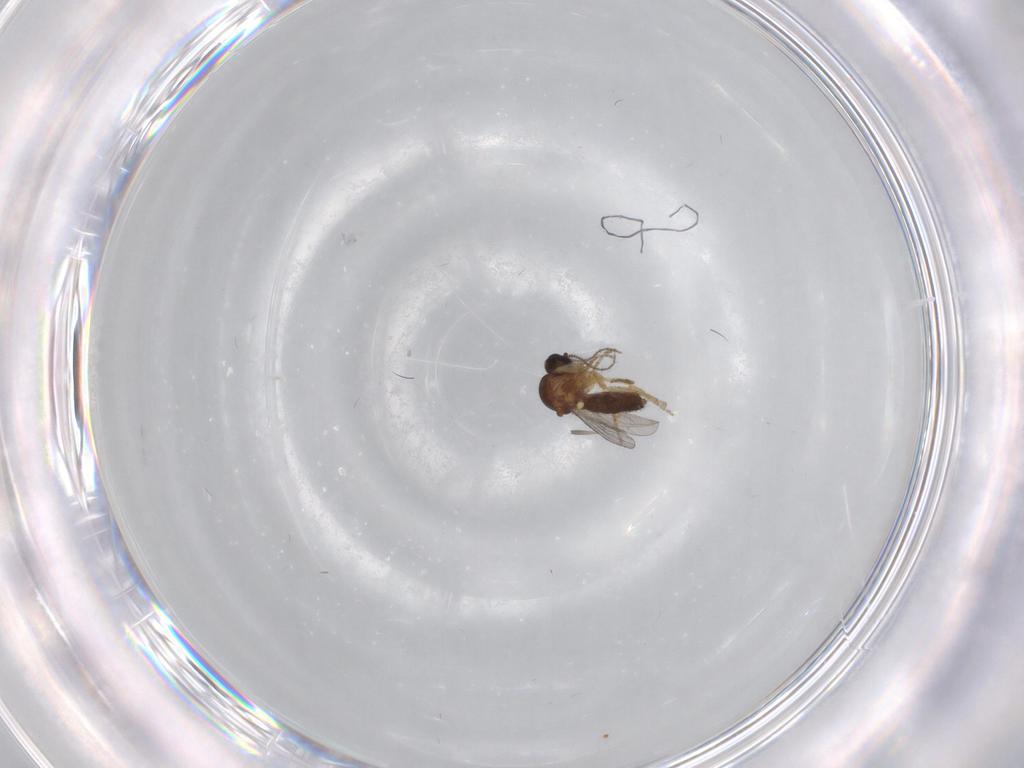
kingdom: Animalia
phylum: Arthropoda
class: Insecta
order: Diptera
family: Ceratopogonidae
